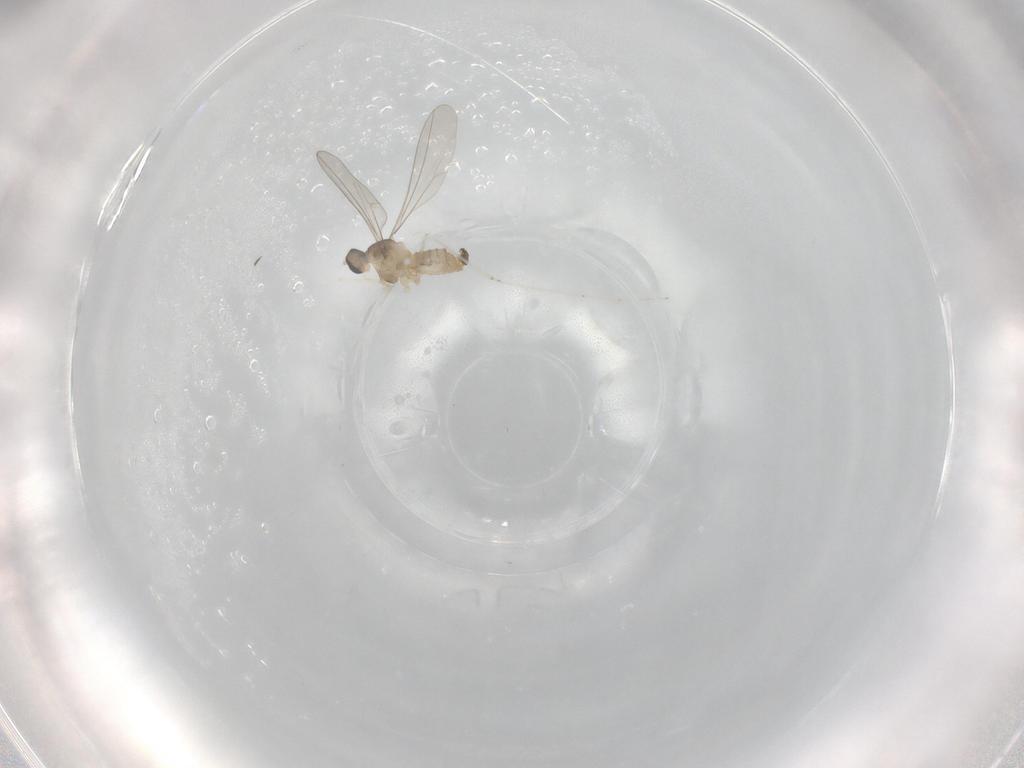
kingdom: Animalia
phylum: Arthropoda
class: Insecta
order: Diptera
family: Cecidomyiidae
